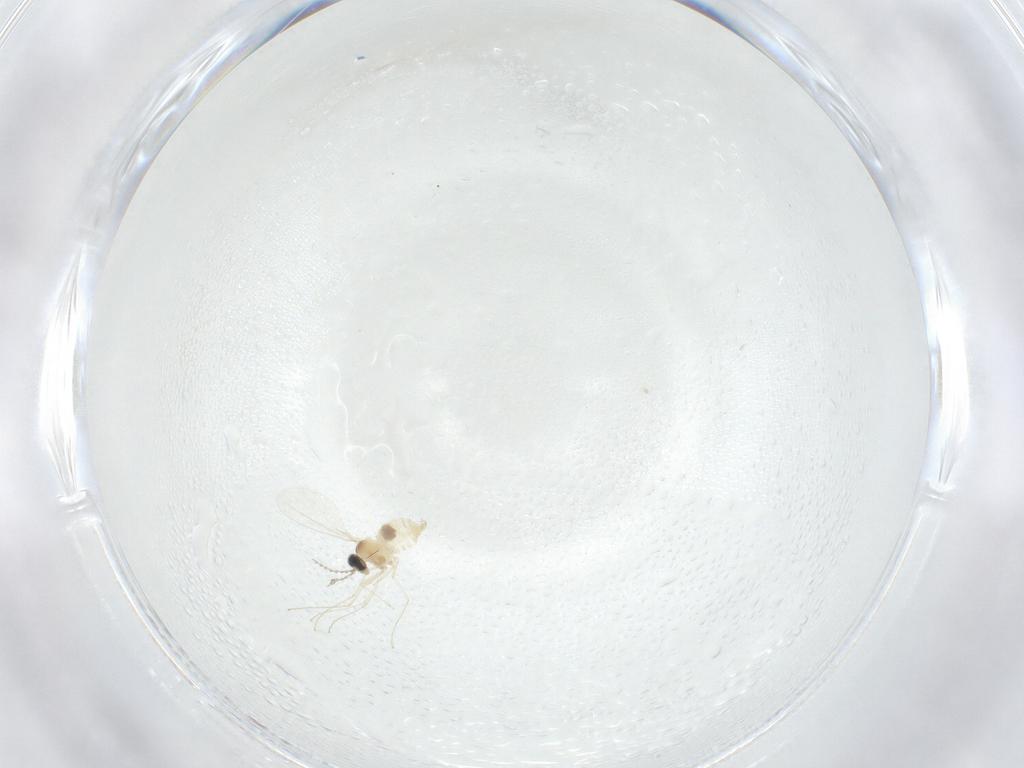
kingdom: Animalia
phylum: Arthropoda
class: Insecta
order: Diptera
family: Cecidomyiidae
